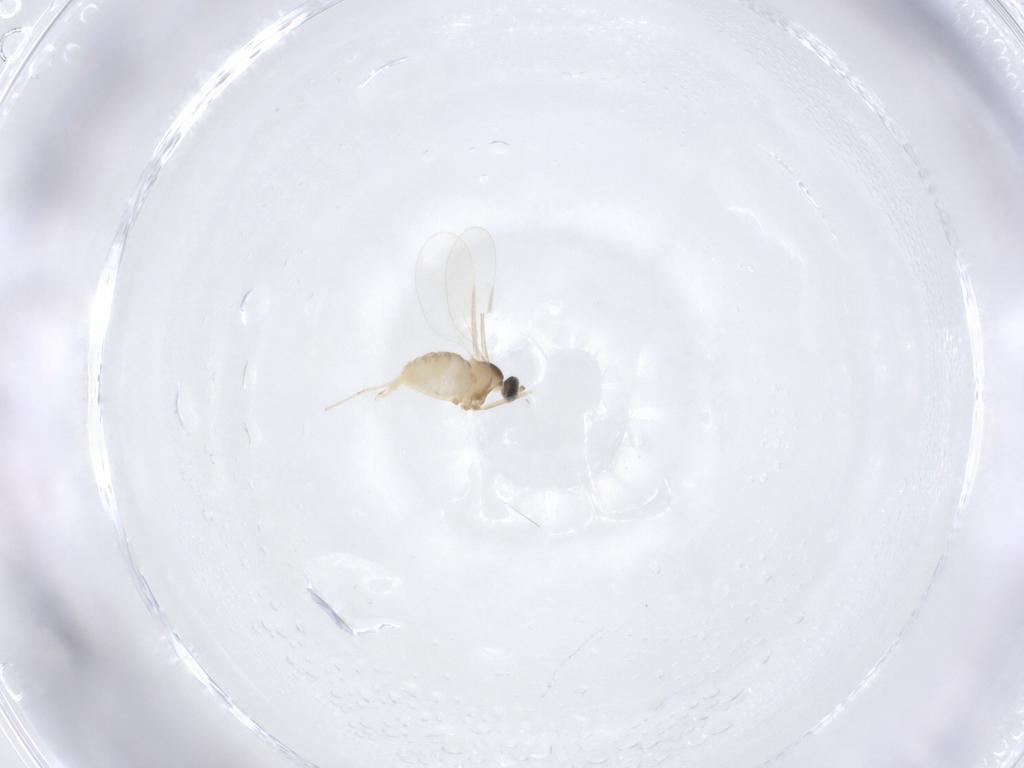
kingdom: Animalia
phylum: Arthropoda
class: Insecta
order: Diptera
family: Cecidomyiidae
